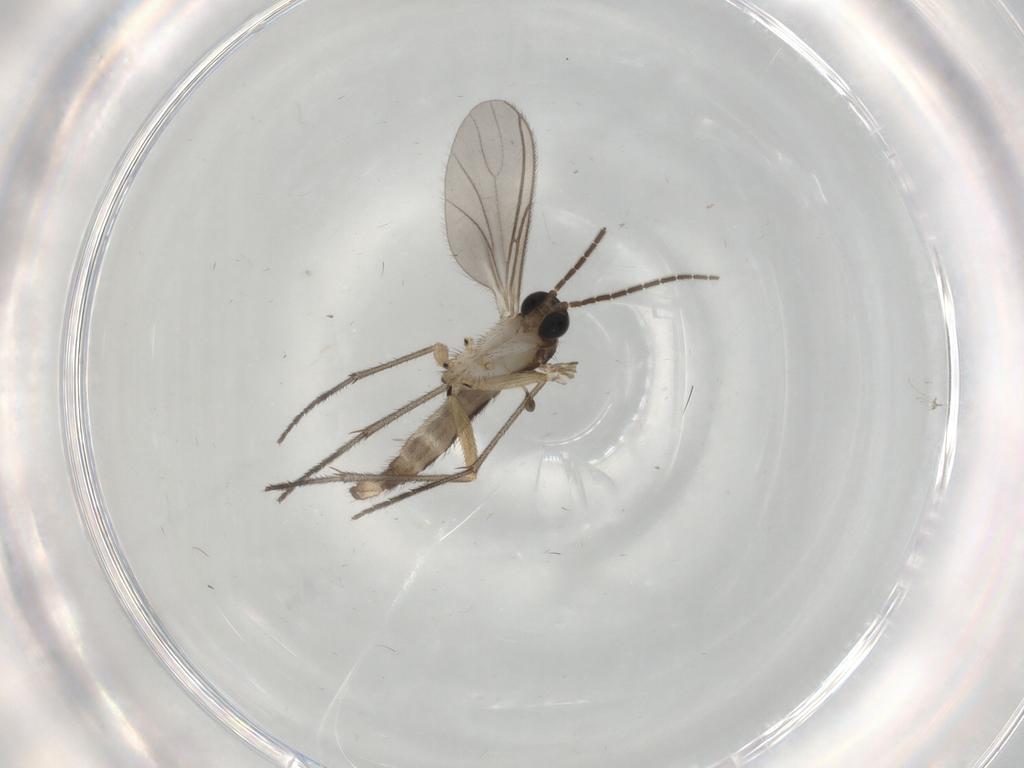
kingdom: Animalia
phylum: Arthropoda
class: Insecta
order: Diptera
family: Sciaridae
